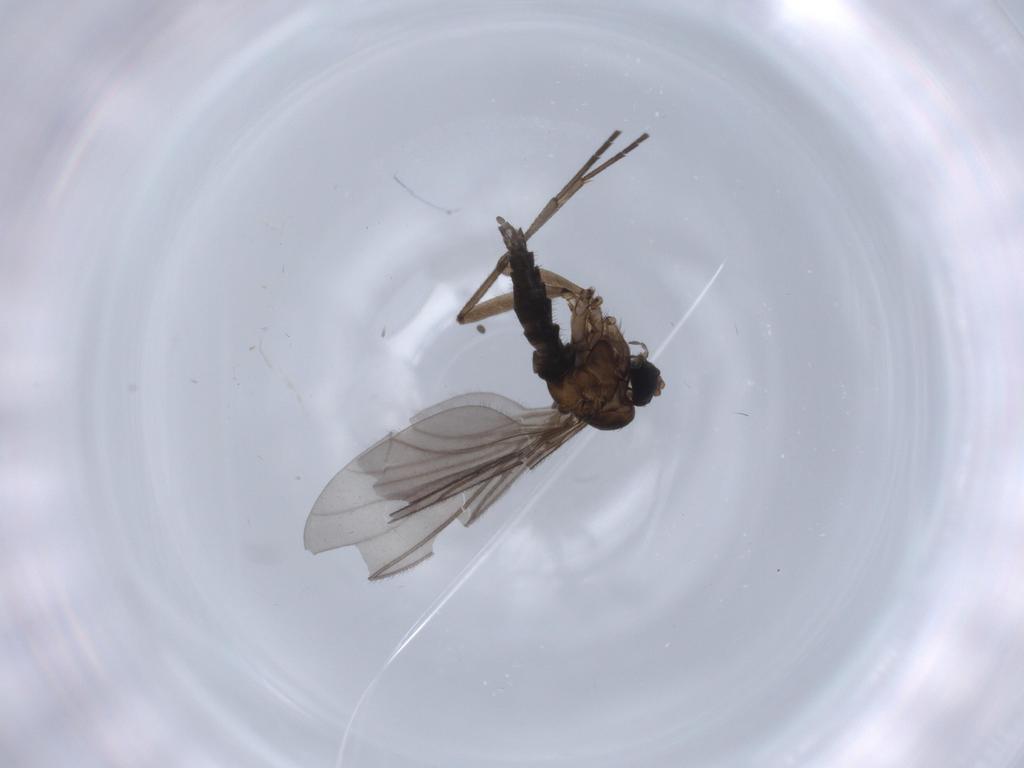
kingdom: Animalia
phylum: Arthropoda
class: Insecta
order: Diptera
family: Sciaridae
